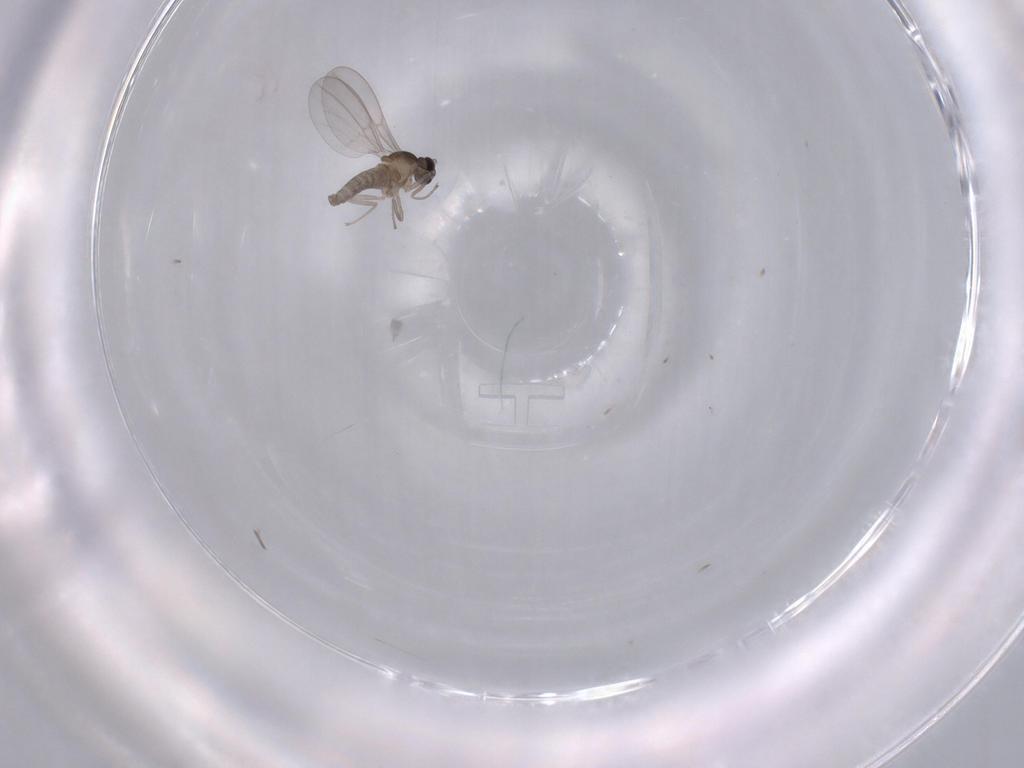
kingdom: Animalia
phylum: Arthropoda
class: Insecta
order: Diptera
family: Cecidomyiidae
